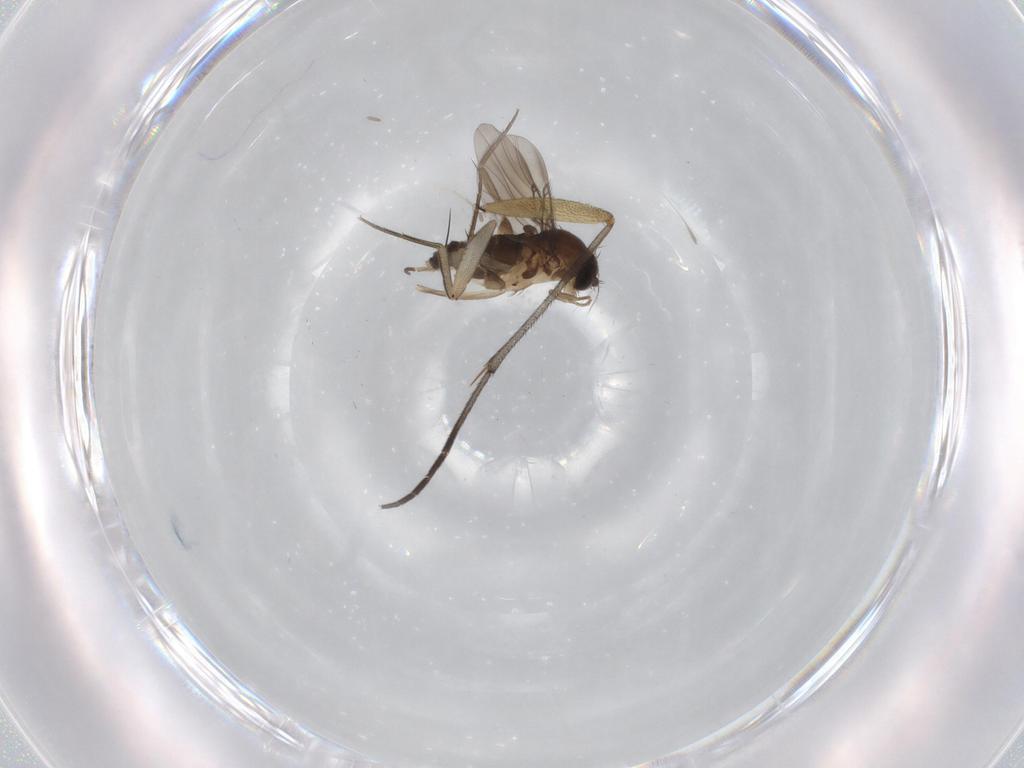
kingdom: Animalia
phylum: Arthropoda
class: Insecta
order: Diptera
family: Phoridae
